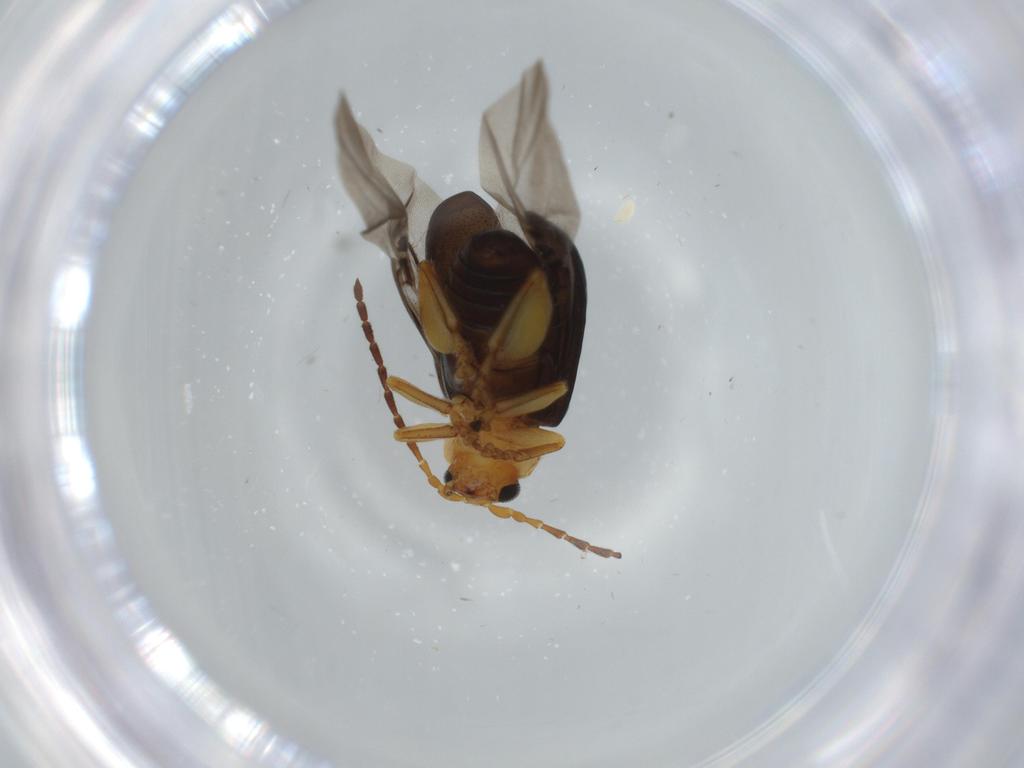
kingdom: Animalia
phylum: Arthropoda
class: Insecta
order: Coleoptera
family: Chrysomelidae
